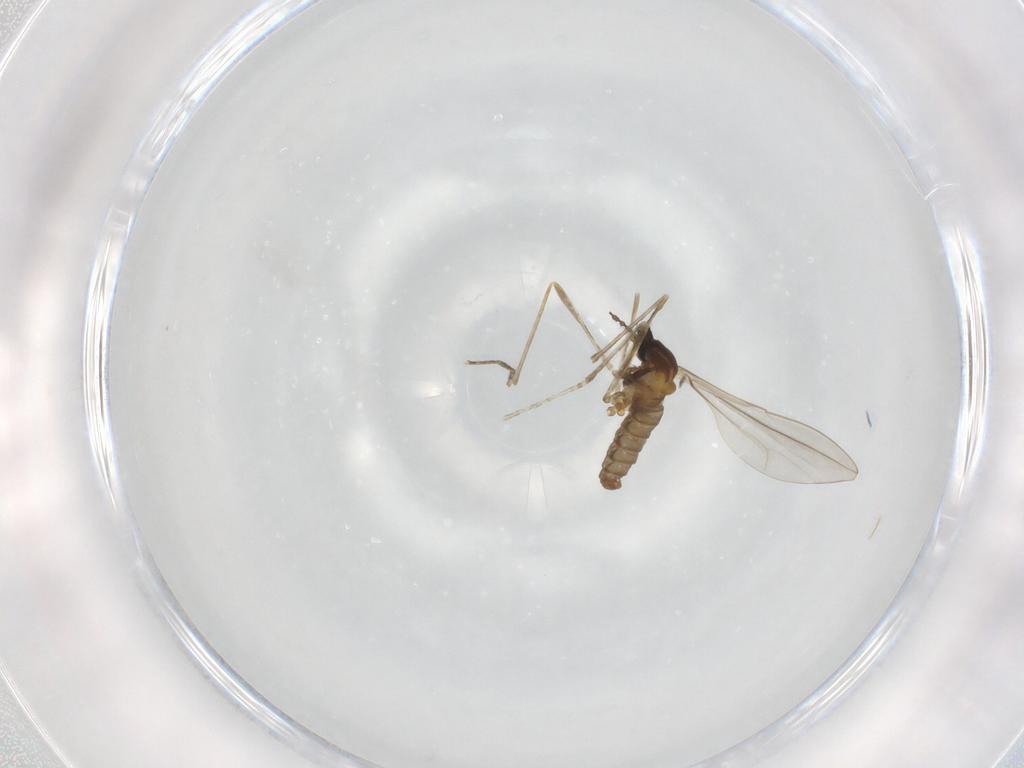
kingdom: Animalia
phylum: Arthropoda
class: Insecta
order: Diptera
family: Cecidomyiidae
